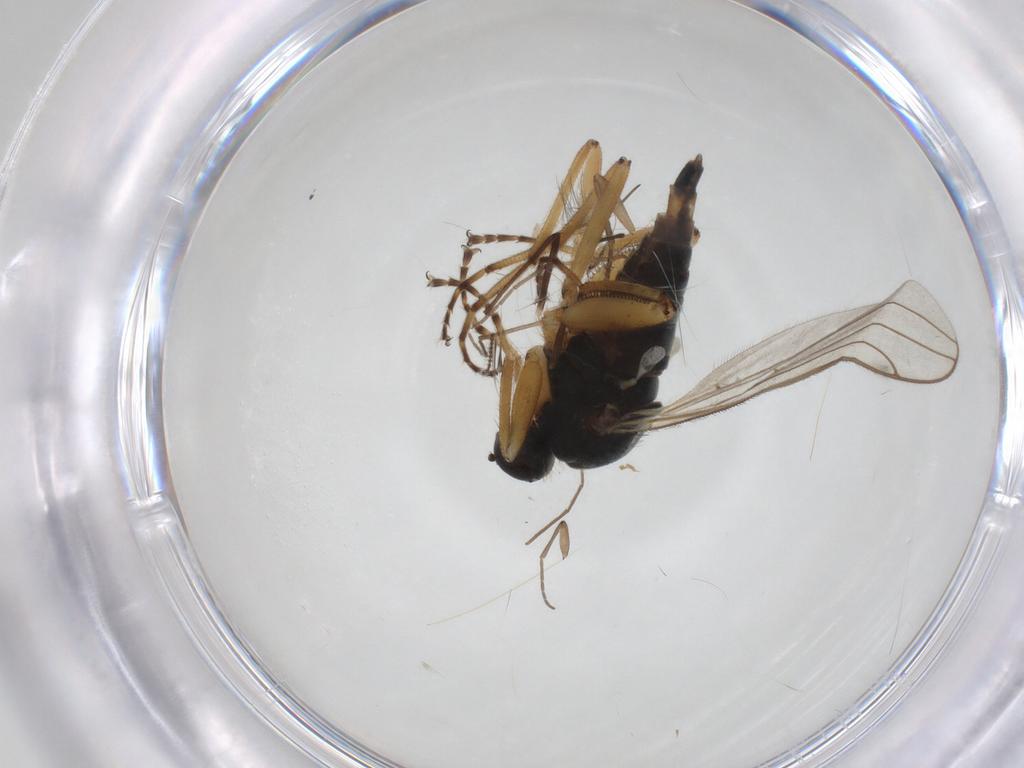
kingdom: Animalia
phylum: Arthropoda
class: Insecta
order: Diptera
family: Hybotidae
